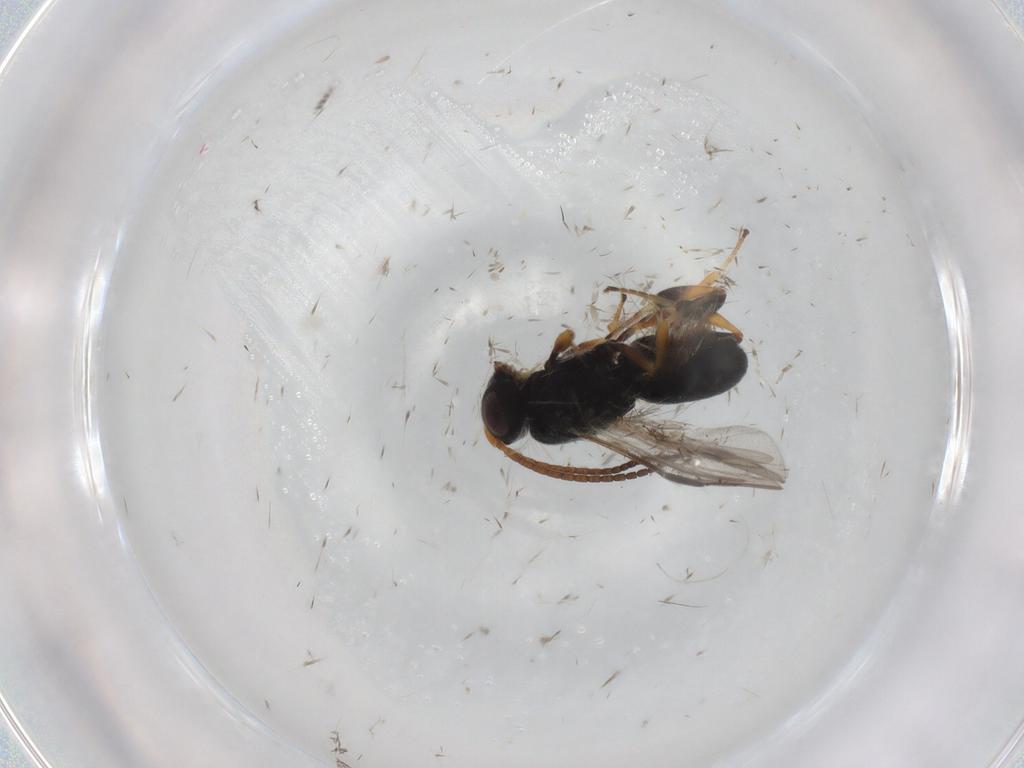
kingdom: Animalia
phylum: Arthropoda
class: Insecta
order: Hymenoptera
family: Braconidae
